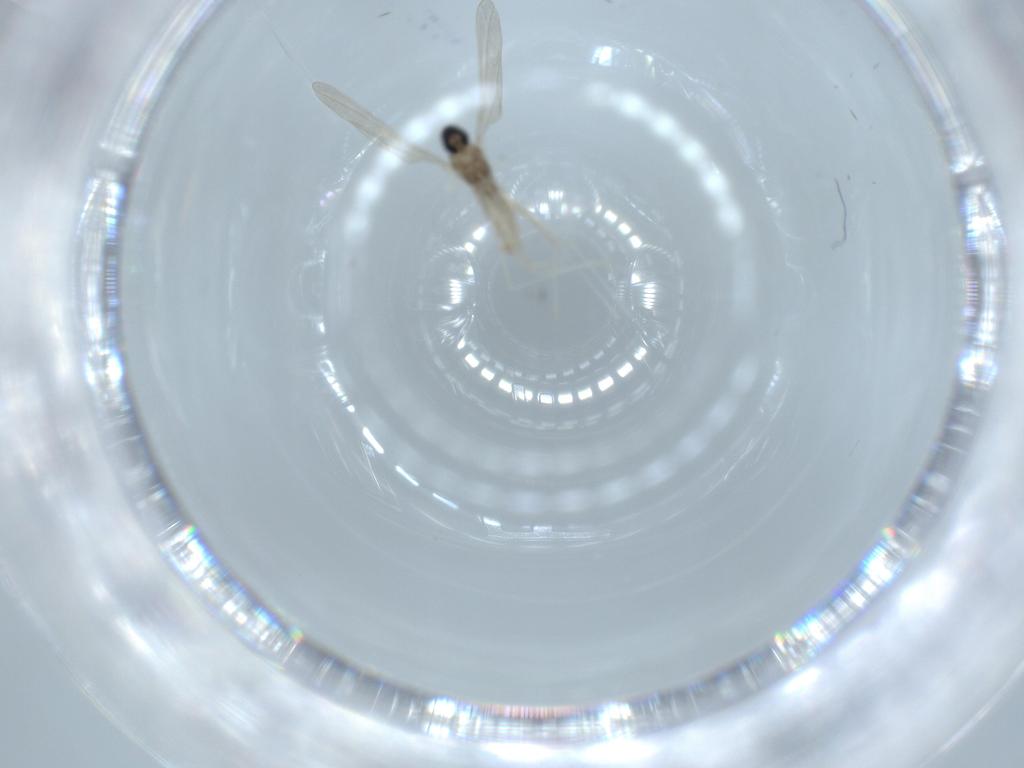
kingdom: Animalia
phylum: Arthropoda
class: Insecta
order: Diptera
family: Cecidomyiidae
